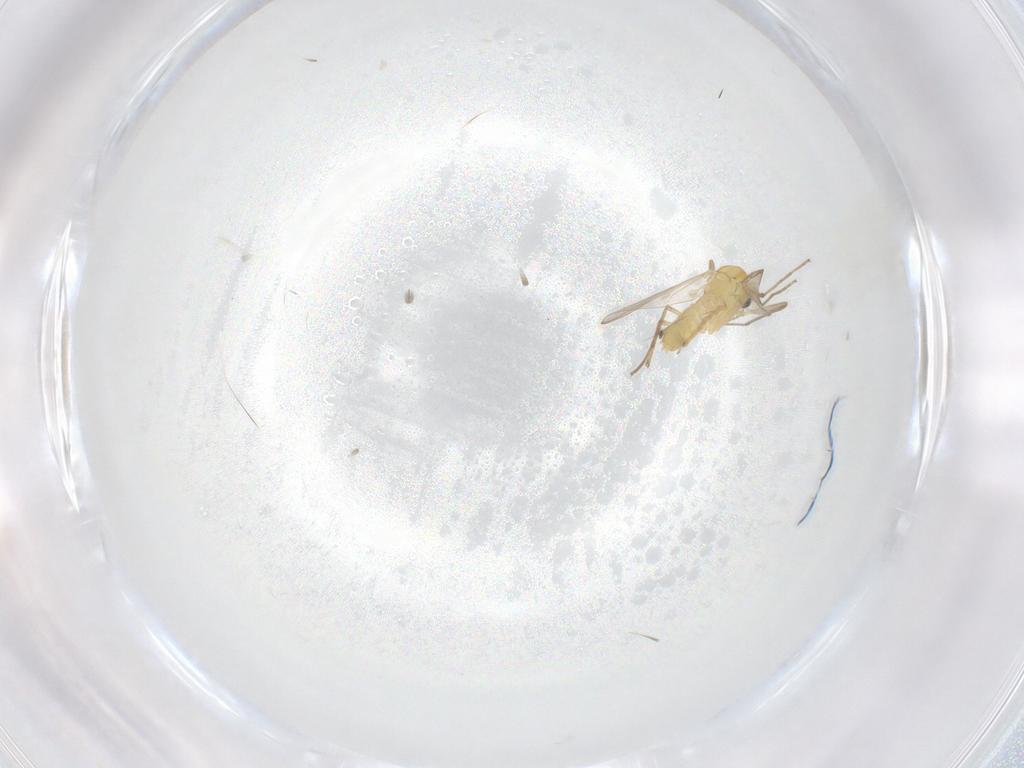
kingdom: Animalia
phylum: Arthropoda
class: Insecta
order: Diptera
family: Chironomidae
